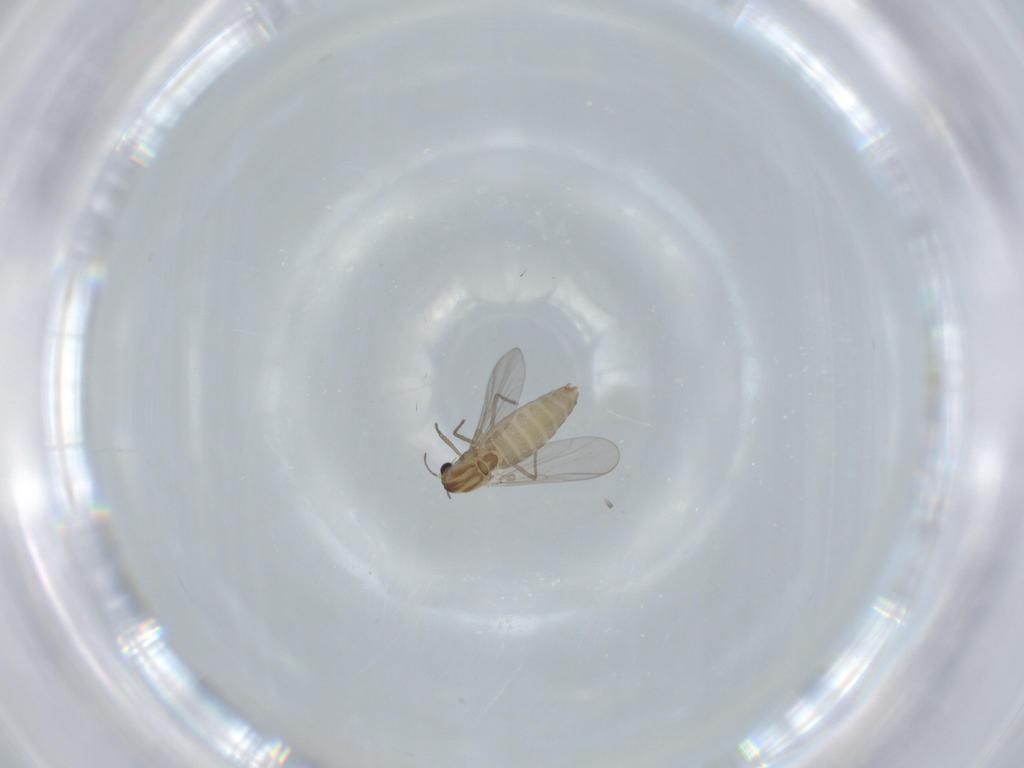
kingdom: Animalia
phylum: Arthropoda
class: Insecta
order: Diptera
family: Chironomidae
